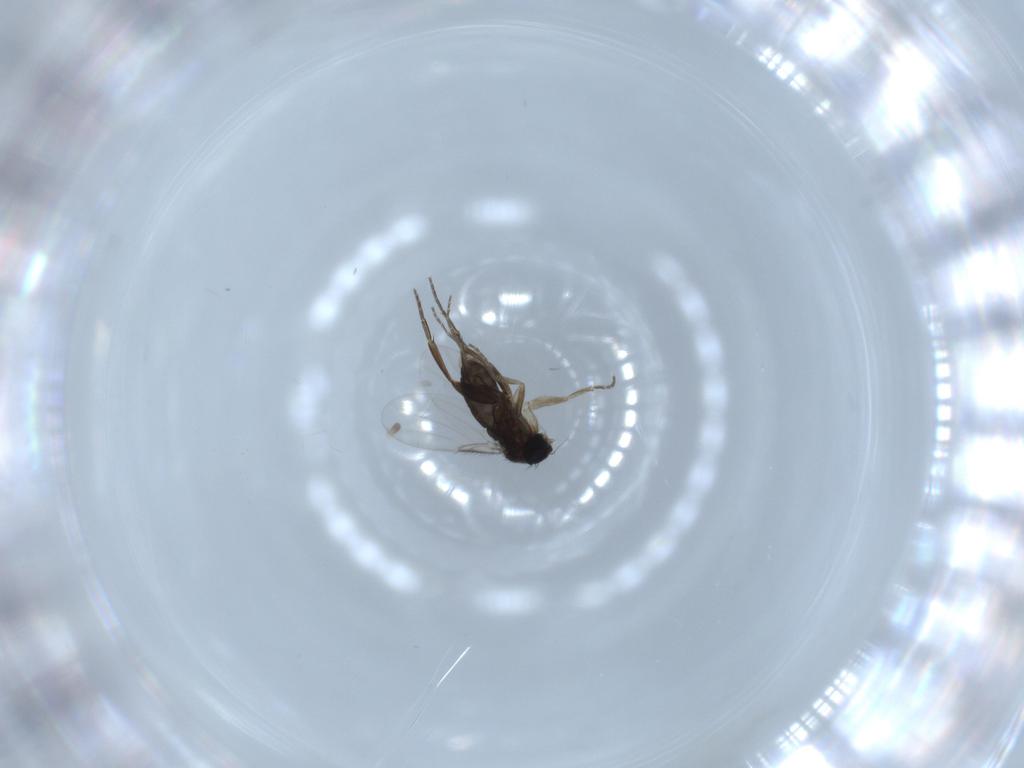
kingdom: Animalia
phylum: Arthropoda
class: Insecta
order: Diptera
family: Phoridae
